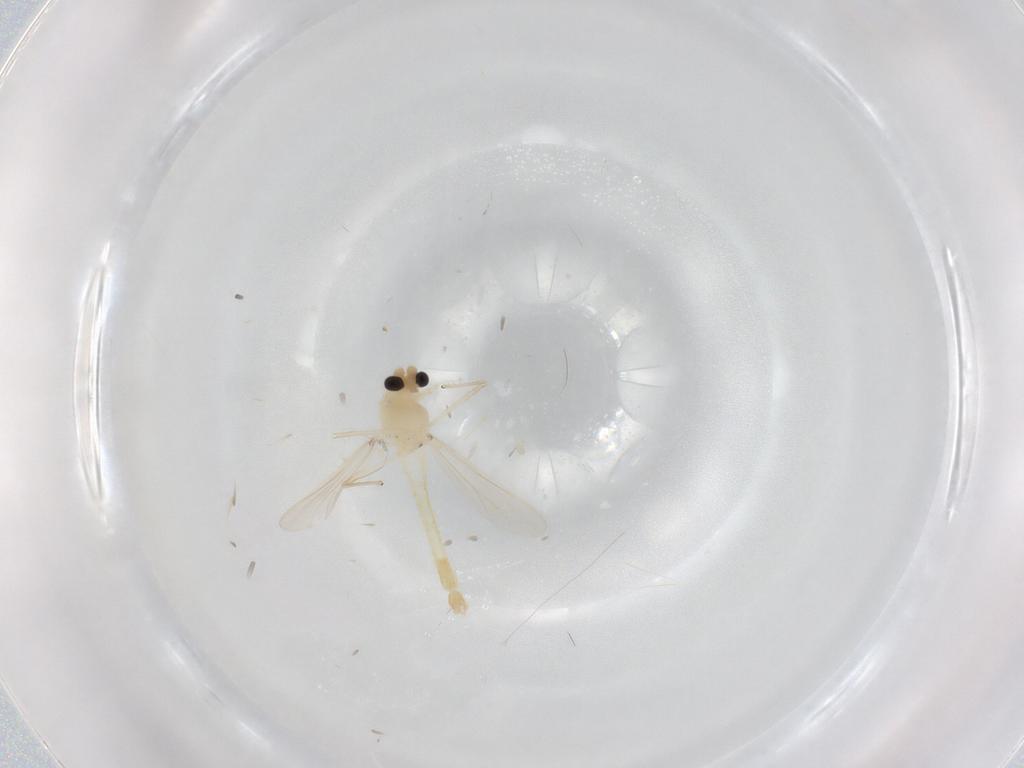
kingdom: Animalia
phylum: Arthropoda
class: Insecta
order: Diptera
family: Chironomidae
